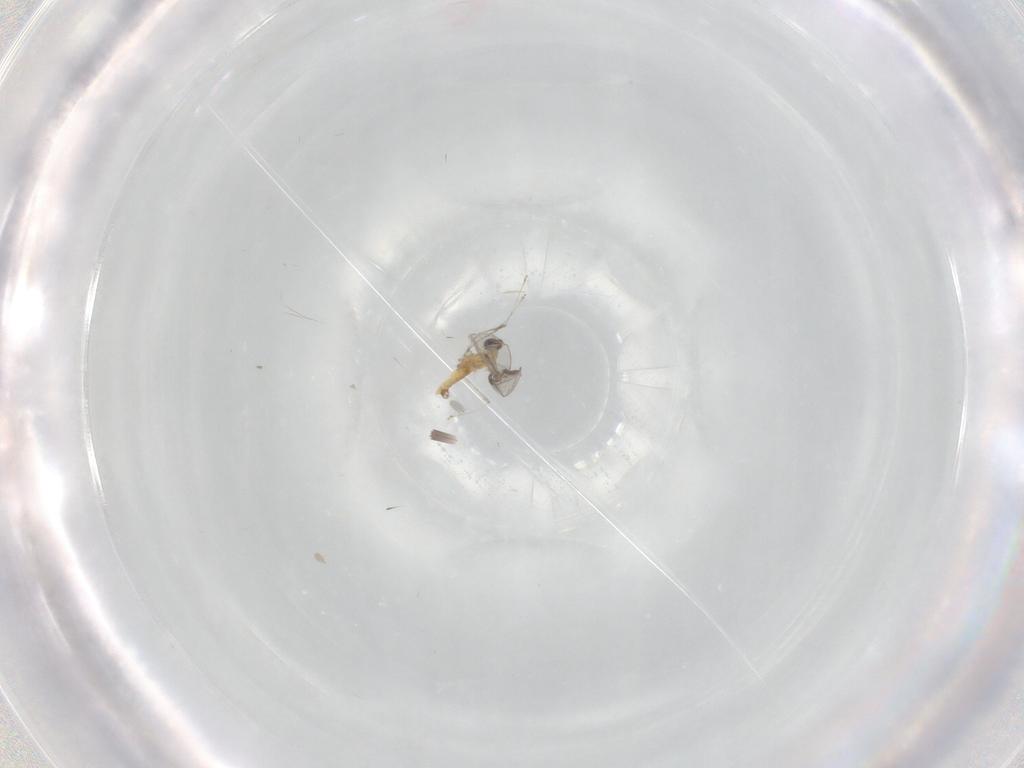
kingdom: Animalia
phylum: Arthropoda
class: Insecta
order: Diptera
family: Cecidomyiidae
